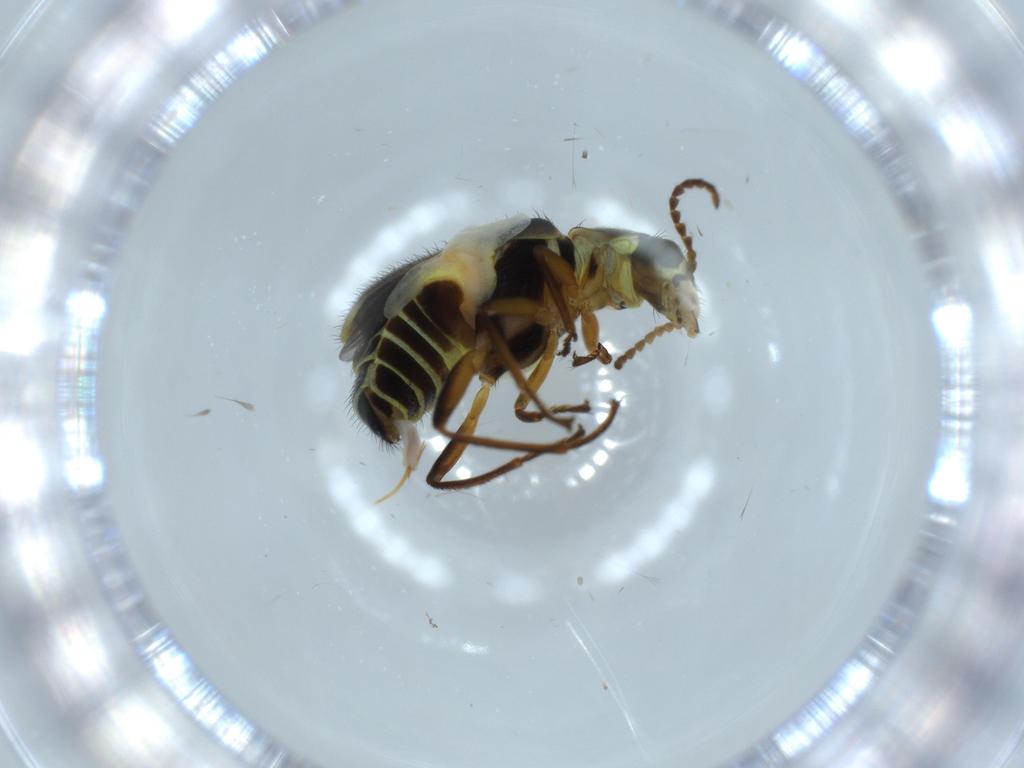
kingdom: Animalia
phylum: Arthropoda
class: Insecta
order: Coleoptera
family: Melyridae
